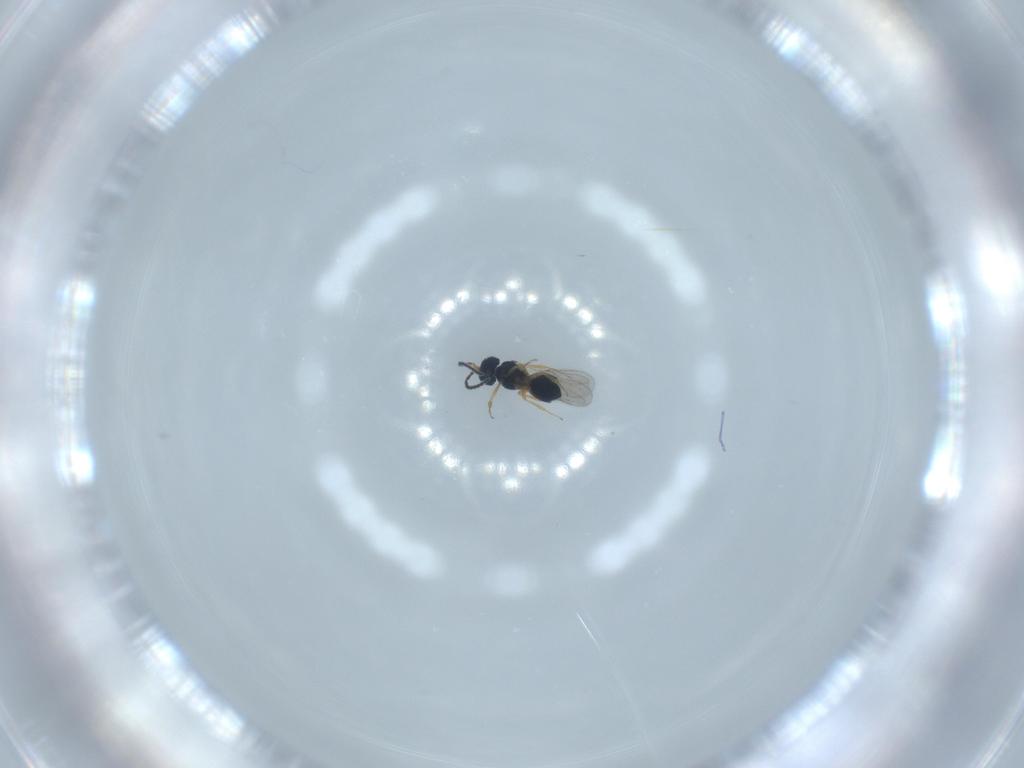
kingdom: Animalia
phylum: Arthropoda
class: Insecta
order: Hymenoptera
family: Scelionidae
